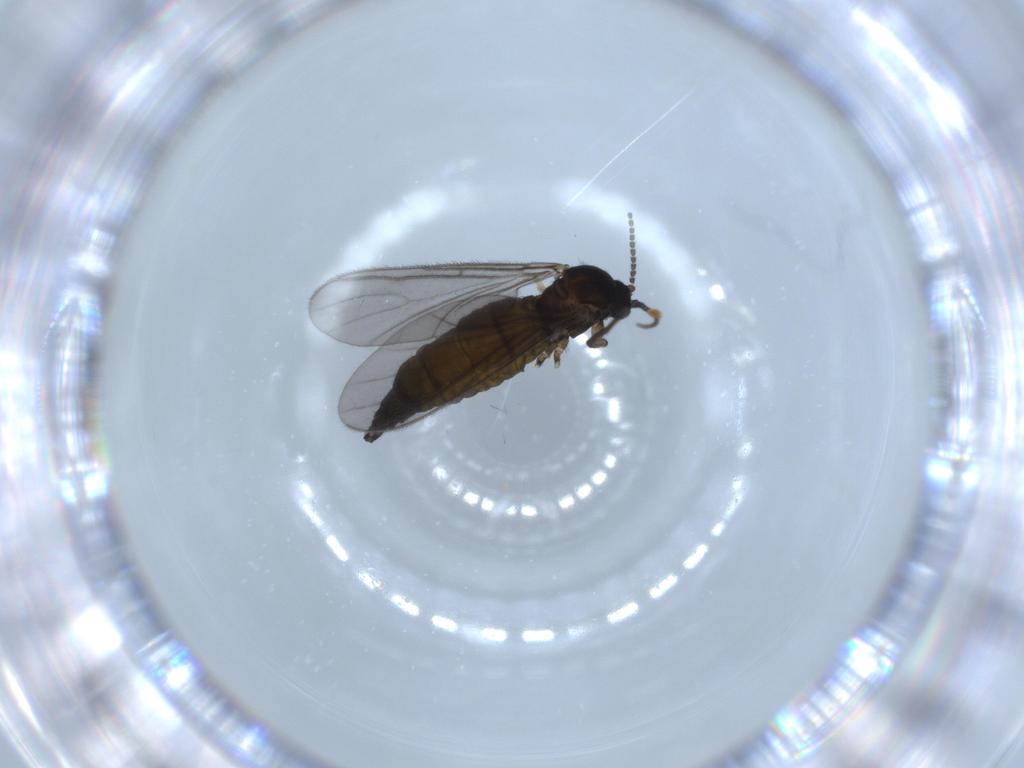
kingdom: Animalia
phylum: Arthropoda
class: Insecta
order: Diptera
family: Sciaridae
